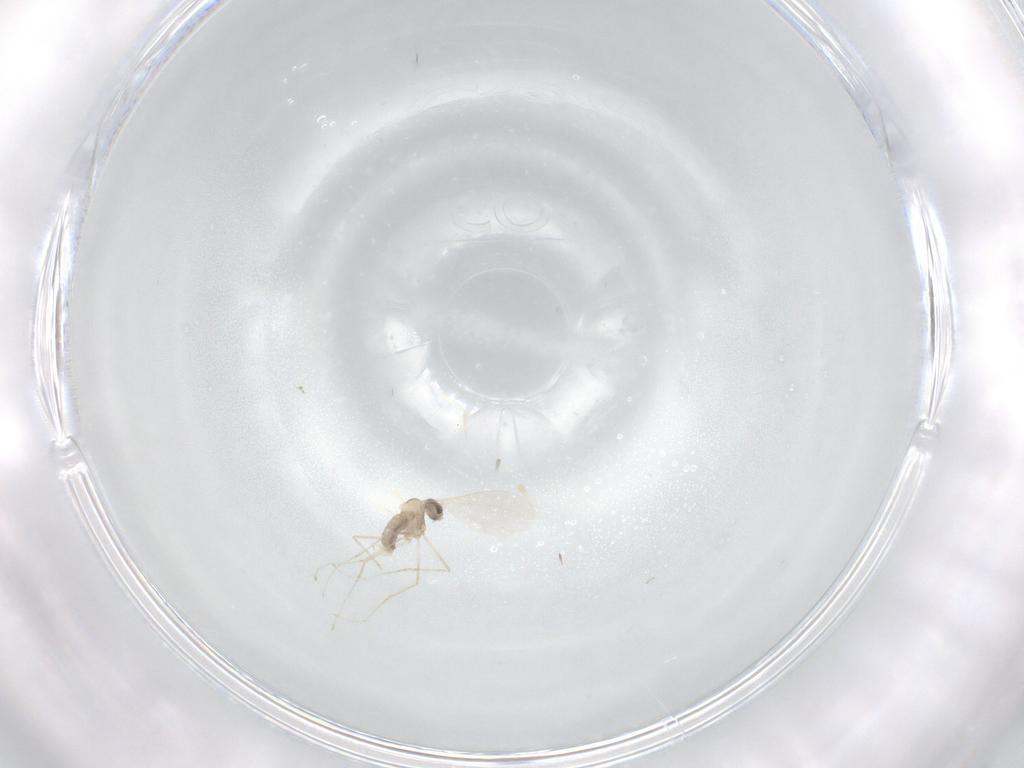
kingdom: Animalia
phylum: Arthropoda
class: Insecta
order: Diptera
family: Cecidomyiidae
